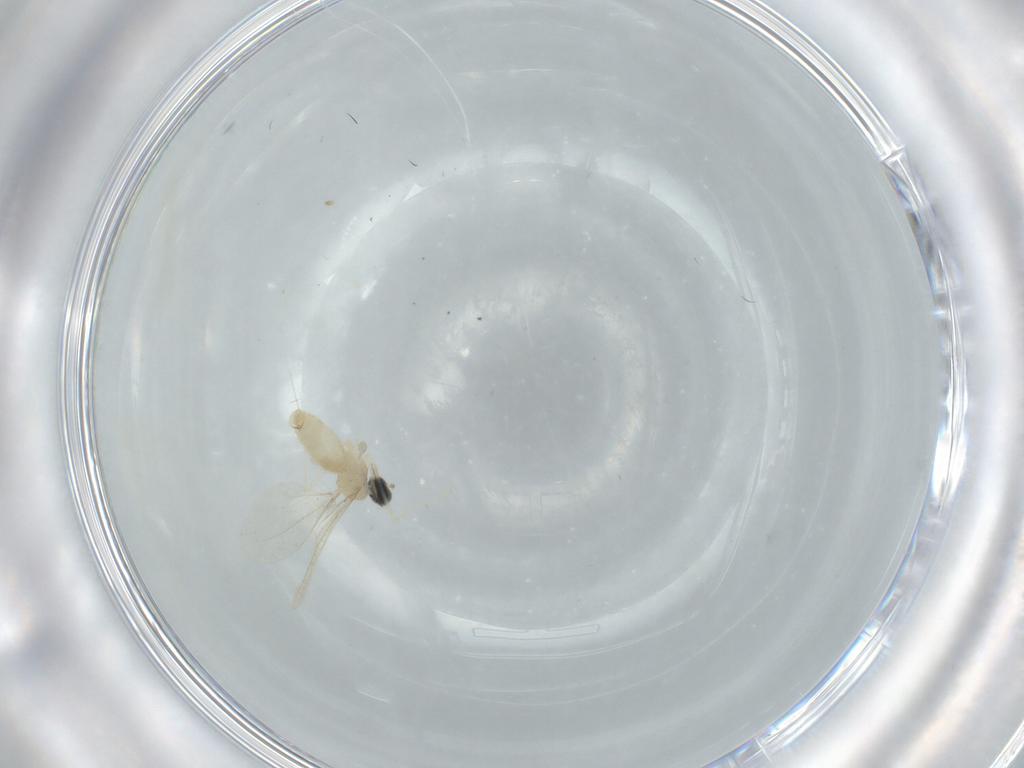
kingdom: Animalia
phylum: Arthropoda
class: Insecta
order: Diptera
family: Cecidomyiidae
